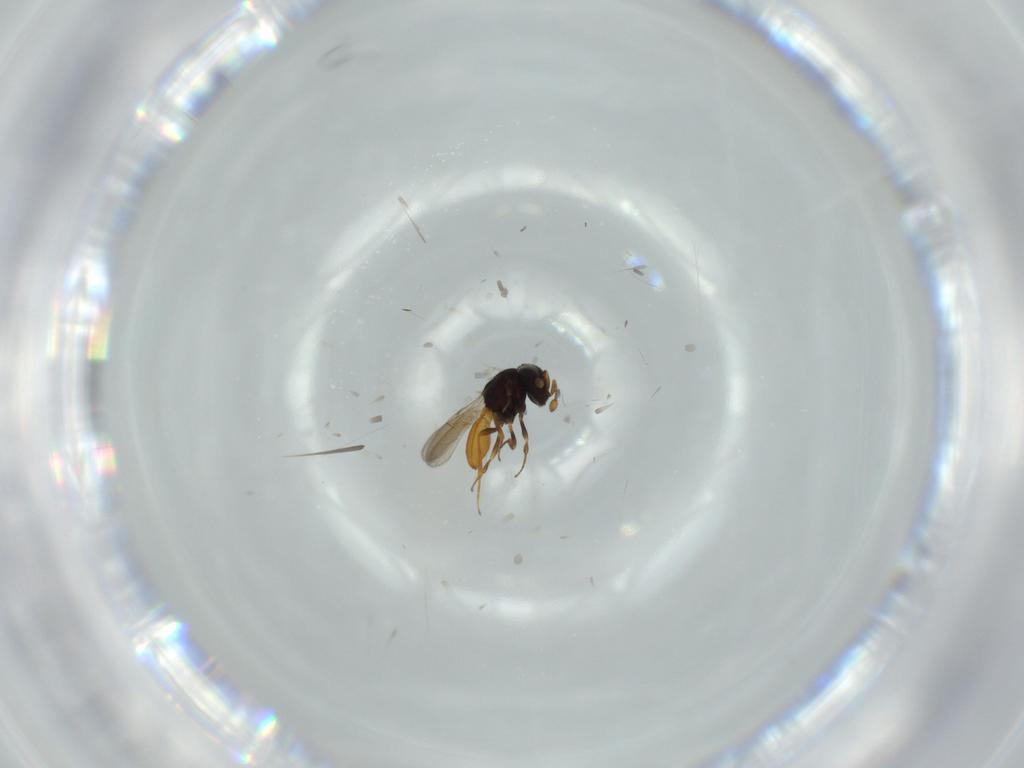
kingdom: Animalia
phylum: Arthropoda
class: Insecta
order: Hymenoptera
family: Scelionidae
